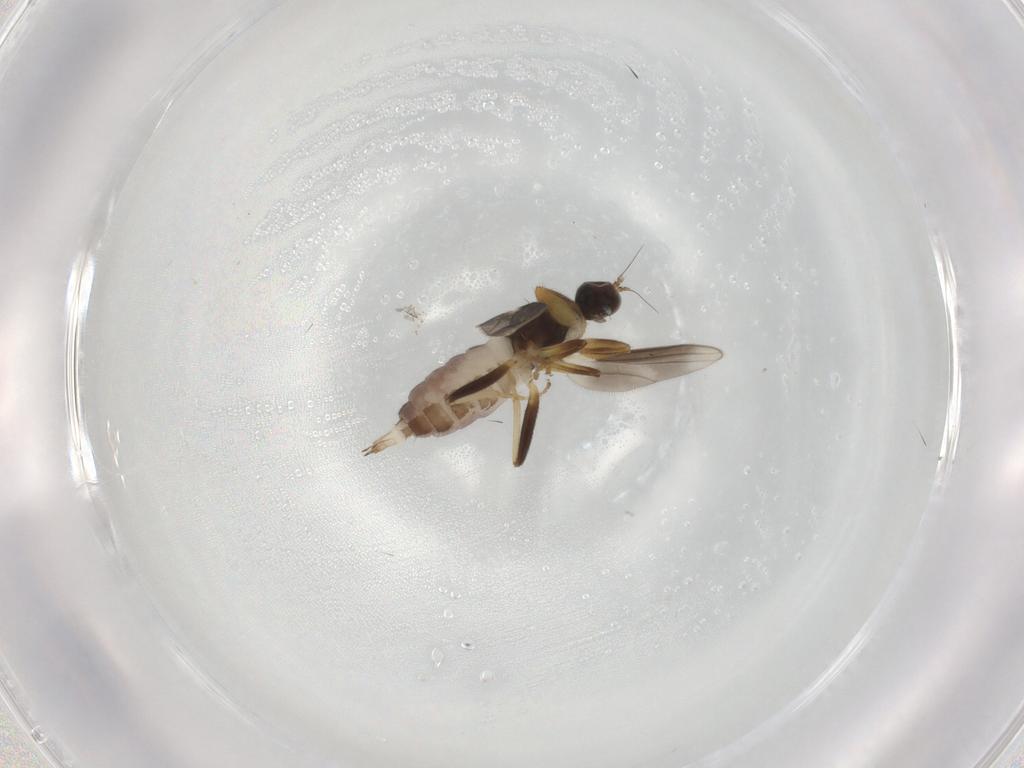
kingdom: Animalia
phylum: Arthropoda
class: Insecta
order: Diptera
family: Hybotidae
